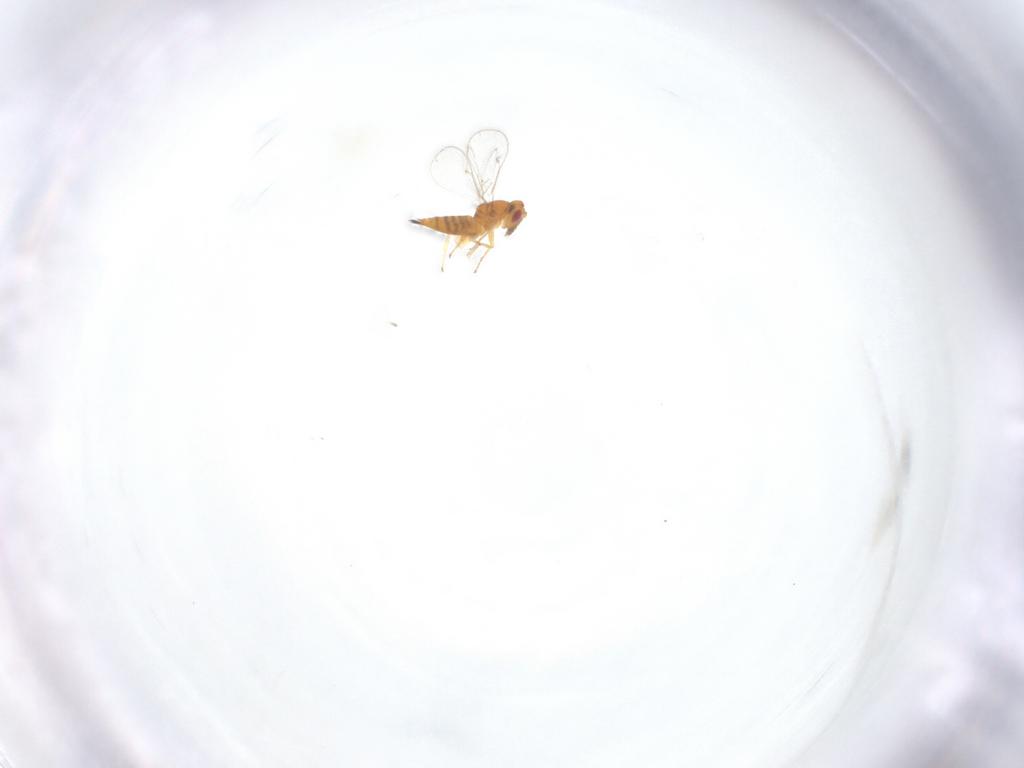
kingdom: Animalia
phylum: Arthropoda
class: Insecta
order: Hymenoptera
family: Eulophidae
